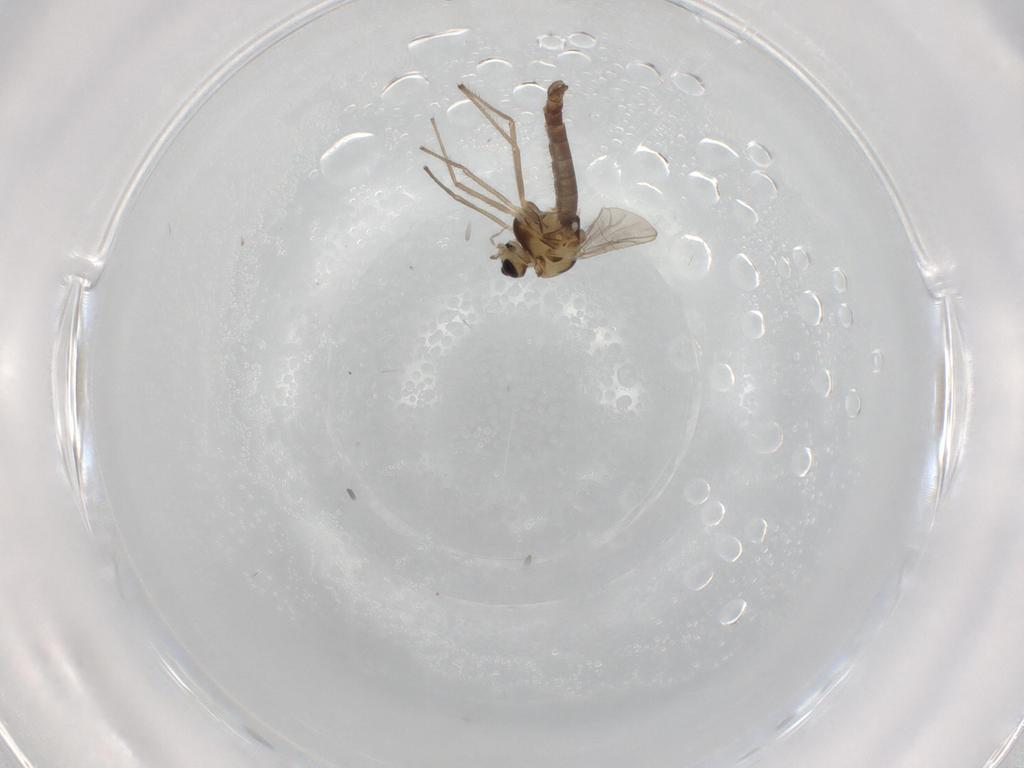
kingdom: Animalia
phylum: Arthropoda
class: Insecta
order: Diptera
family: Chironomidae
